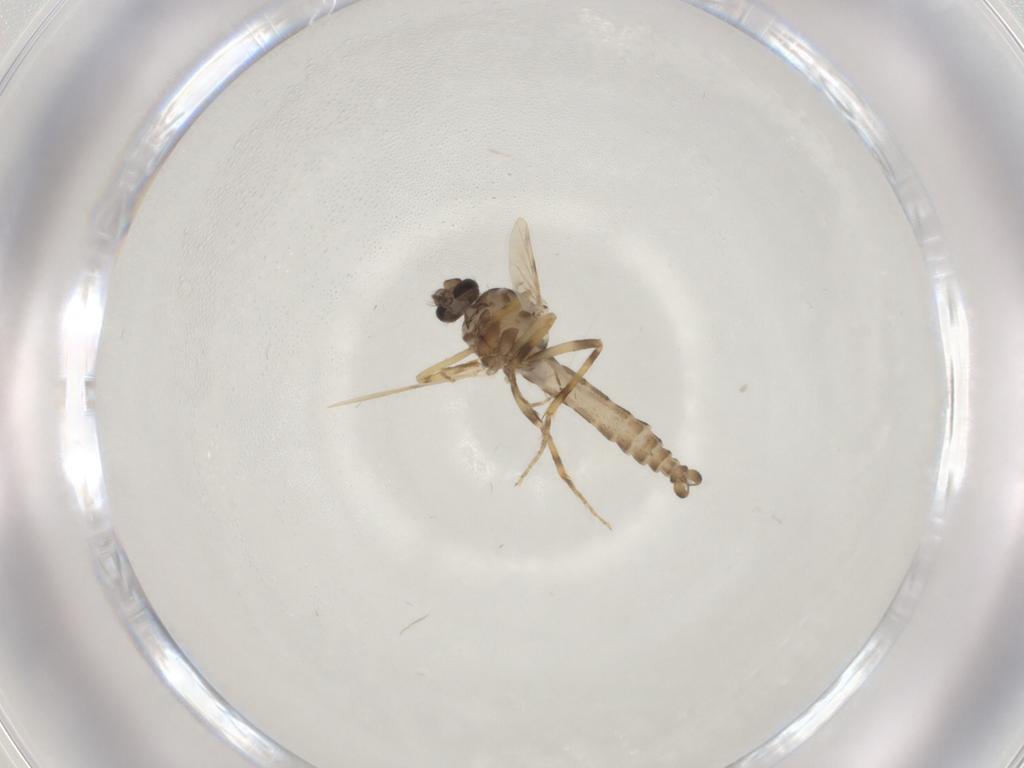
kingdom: Animalia
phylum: Arthropoda
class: Insecta
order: Diptera
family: Ceratopogonidae
